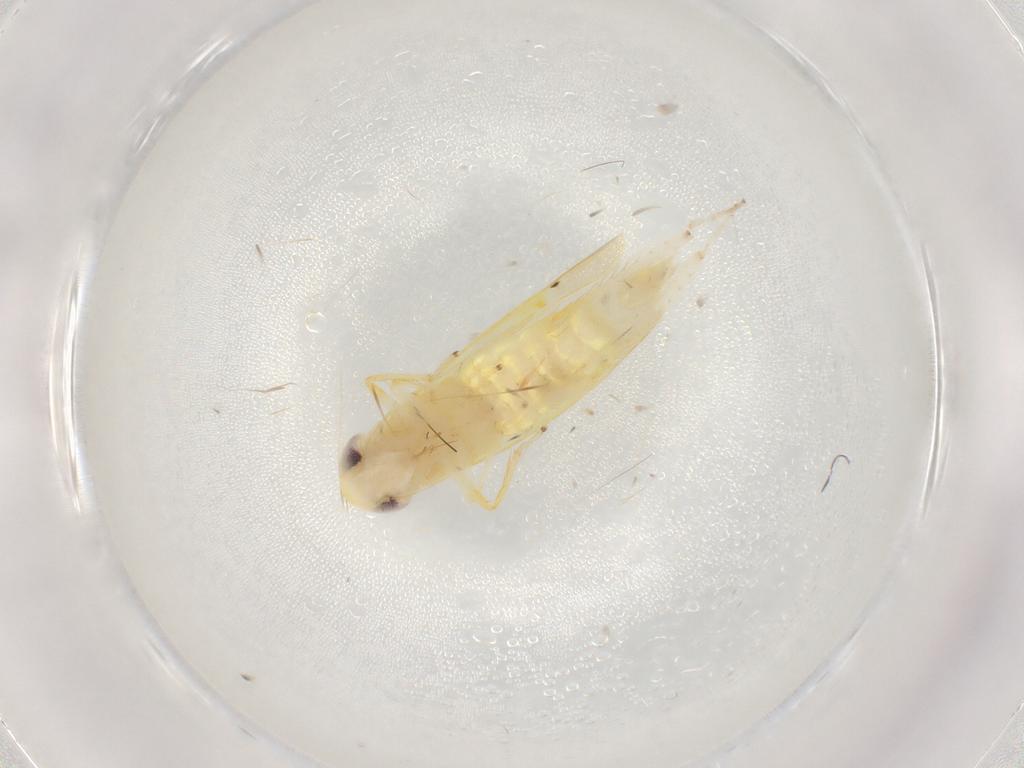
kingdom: Animalia
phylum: Arthropoda
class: Insecta
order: Hemiptera
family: Cicadellidae
